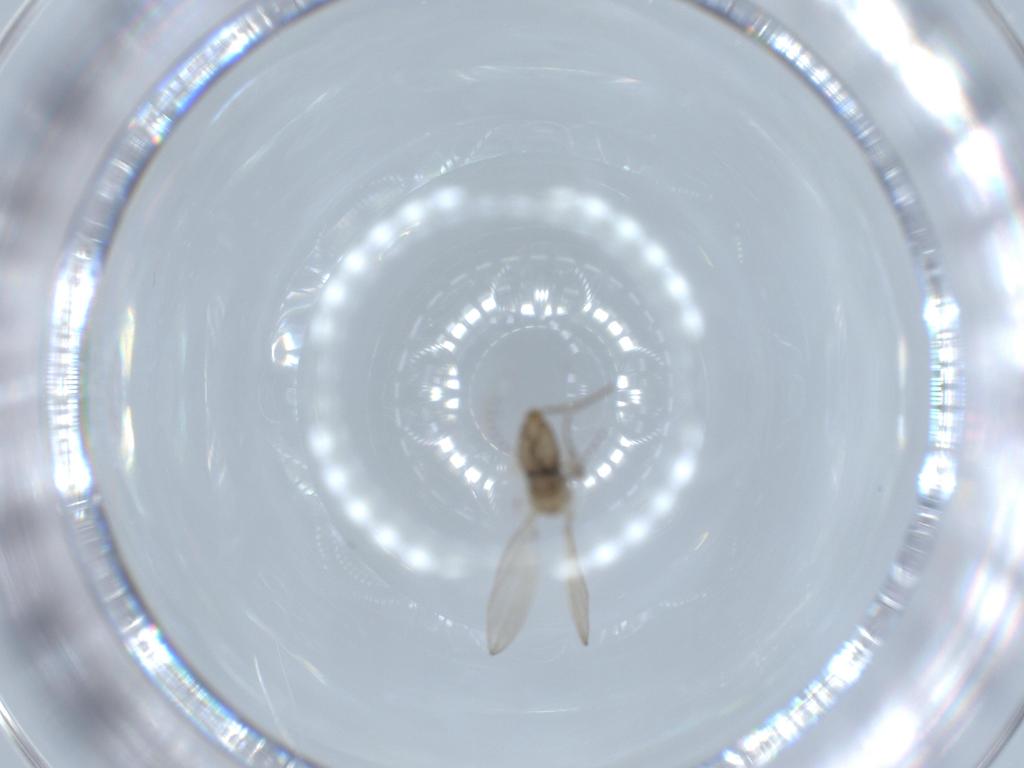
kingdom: Animalia
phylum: Arthropoda
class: Insecta
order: Diptera
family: Psychodidae
